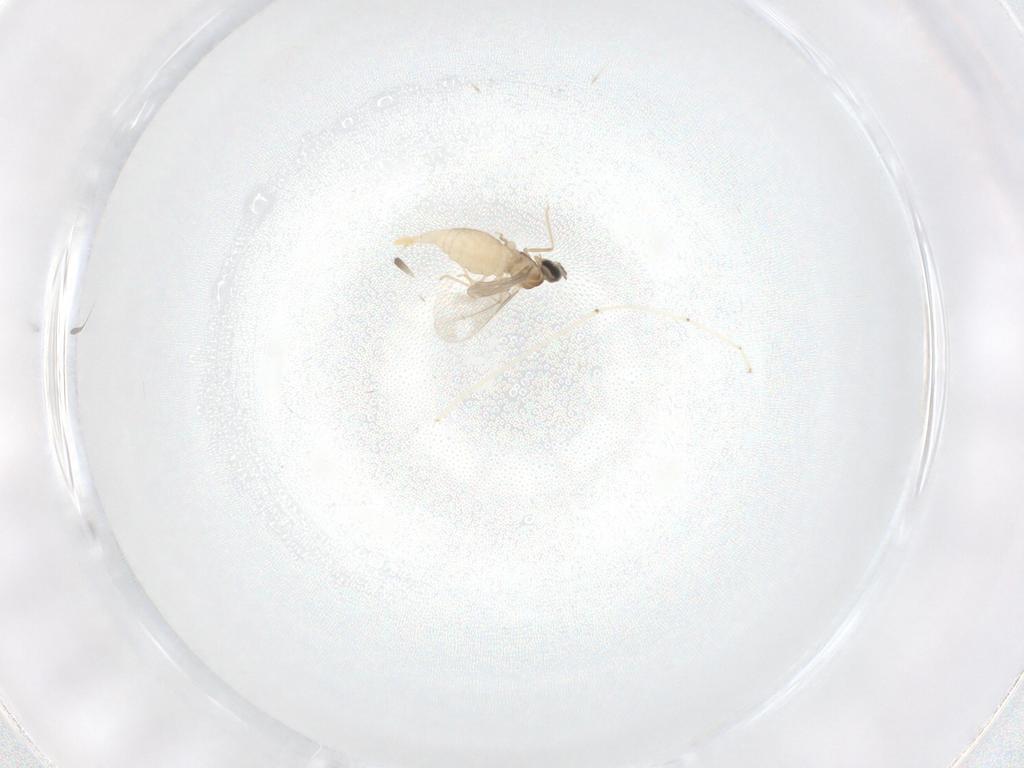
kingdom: Animalia
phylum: Arthropoda
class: Insecta
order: Diptera
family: Cecidomyiidae
